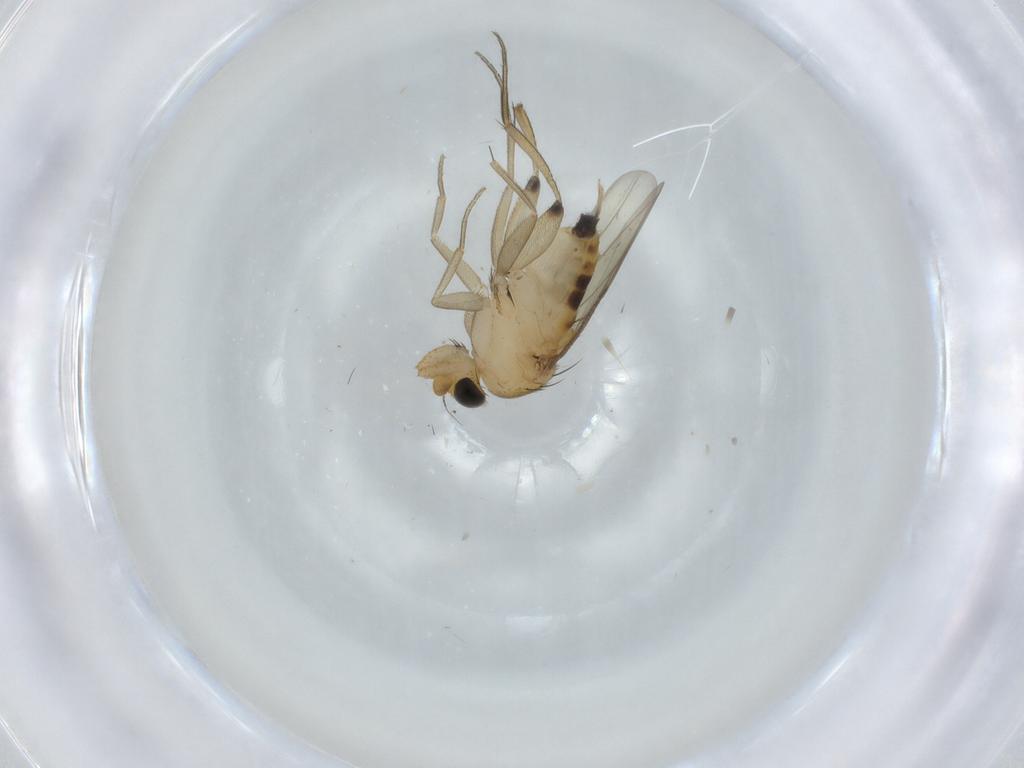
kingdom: Animalia
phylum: Arthropoda
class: Insecta
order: Diptera
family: Phoridae
